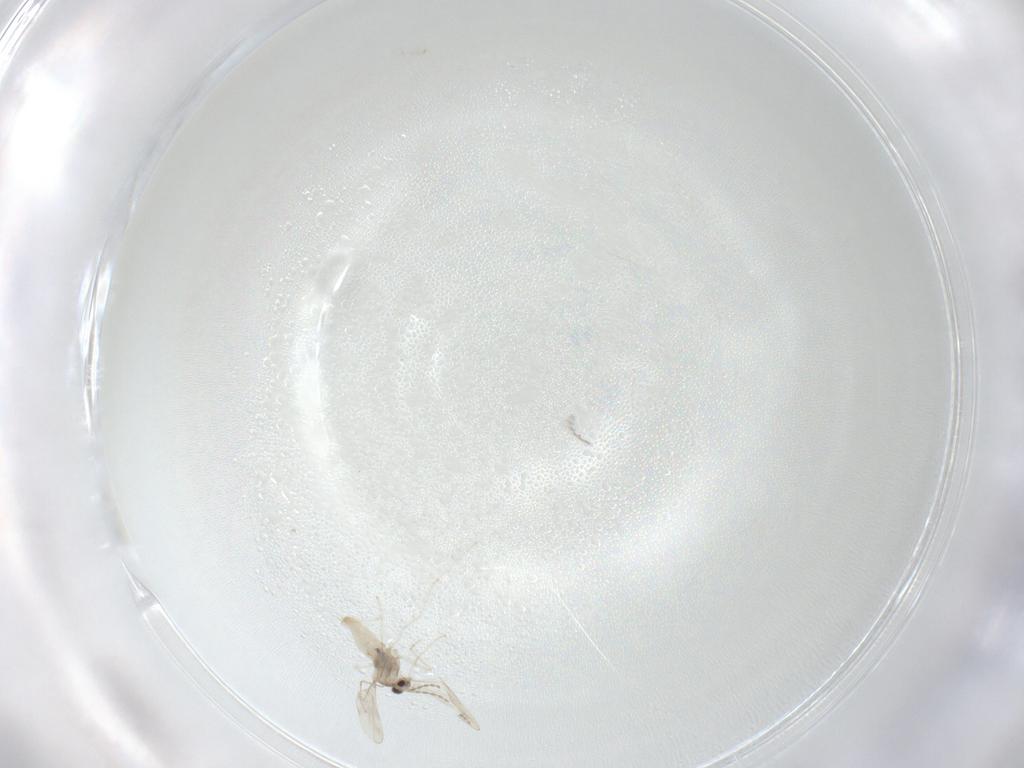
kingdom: Animalia
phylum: Arthropoda
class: Insecta
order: Diptera
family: Cecidomyiidae
